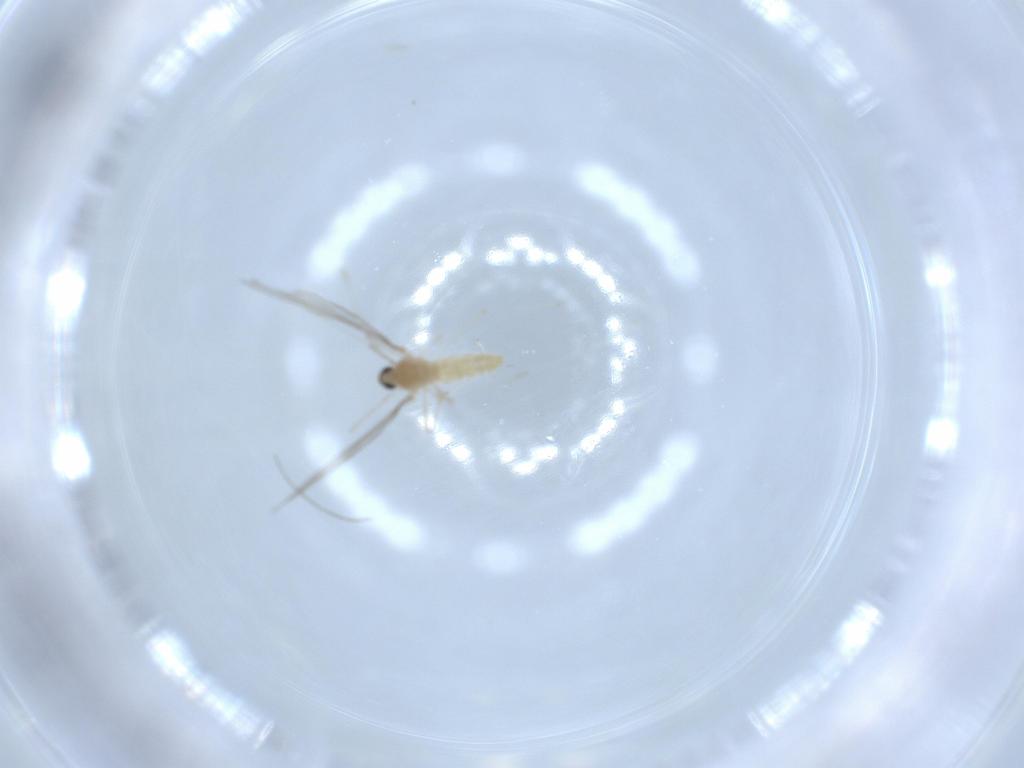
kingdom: Animalia
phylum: Arthropoda
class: Insecta
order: Diptera
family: Cecidomyiidae
